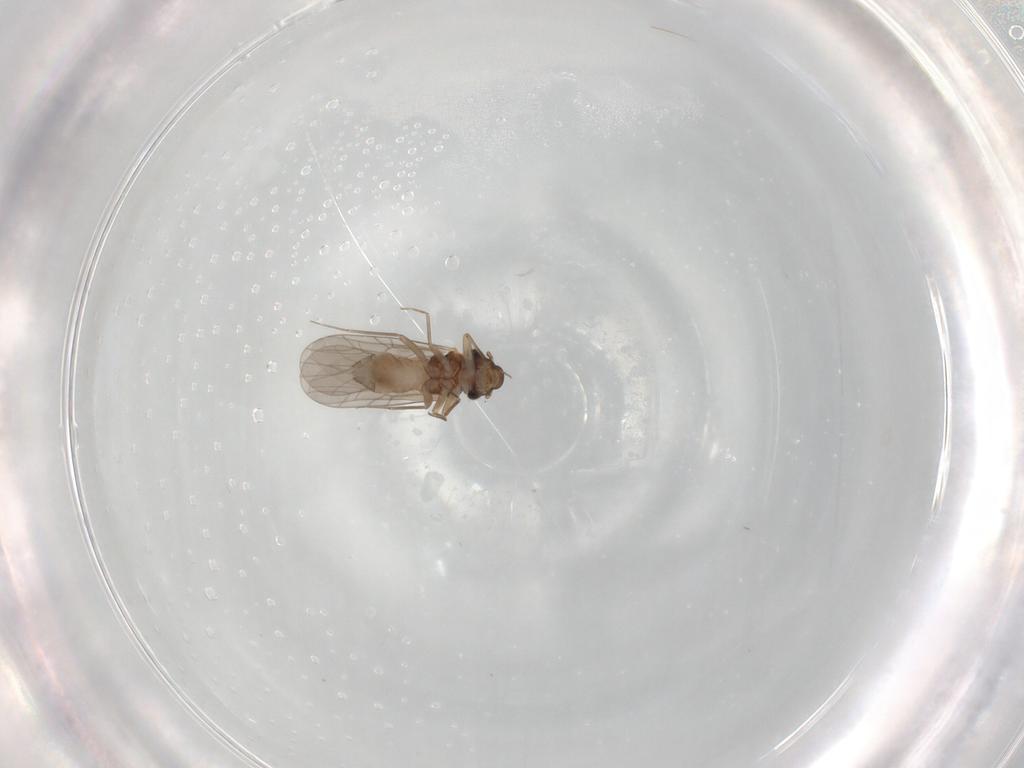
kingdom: Animalia
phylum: Arthropoda
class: Insecta
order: Psocodea
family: Lepidopsocidae
